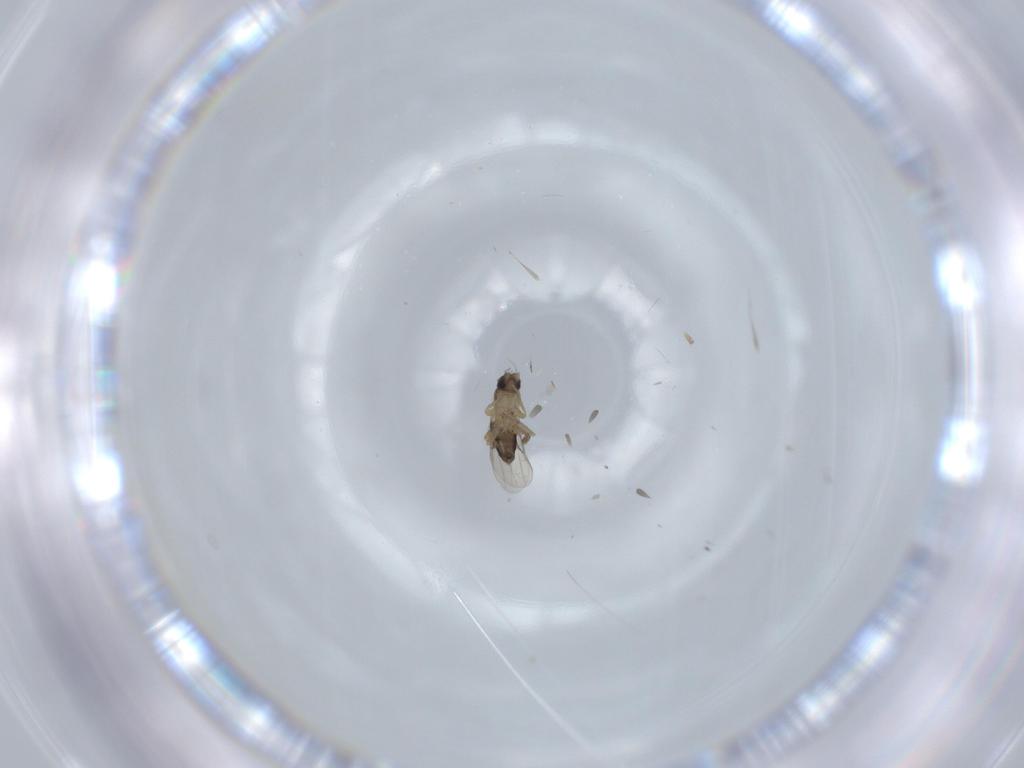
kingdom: Animalia
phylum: Arthropoda
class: Insecta
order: Diptera
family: Phoridae
